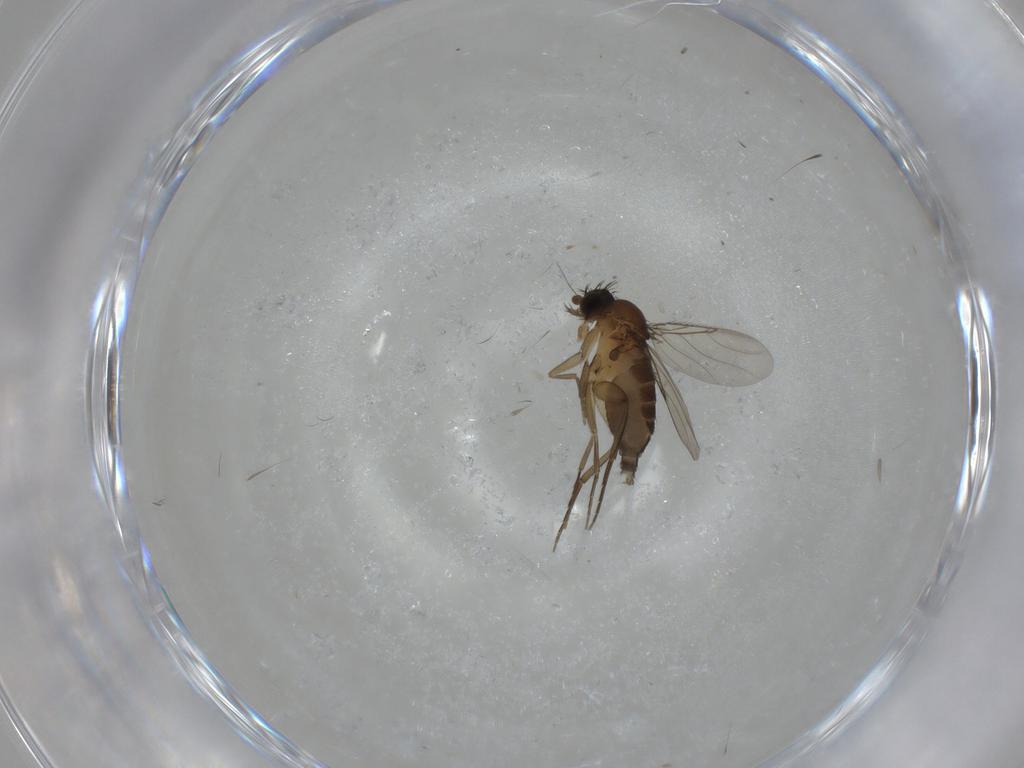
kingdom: Animalia
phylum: Arthropoda
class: Insecta
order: Diptera
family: Phoridae
